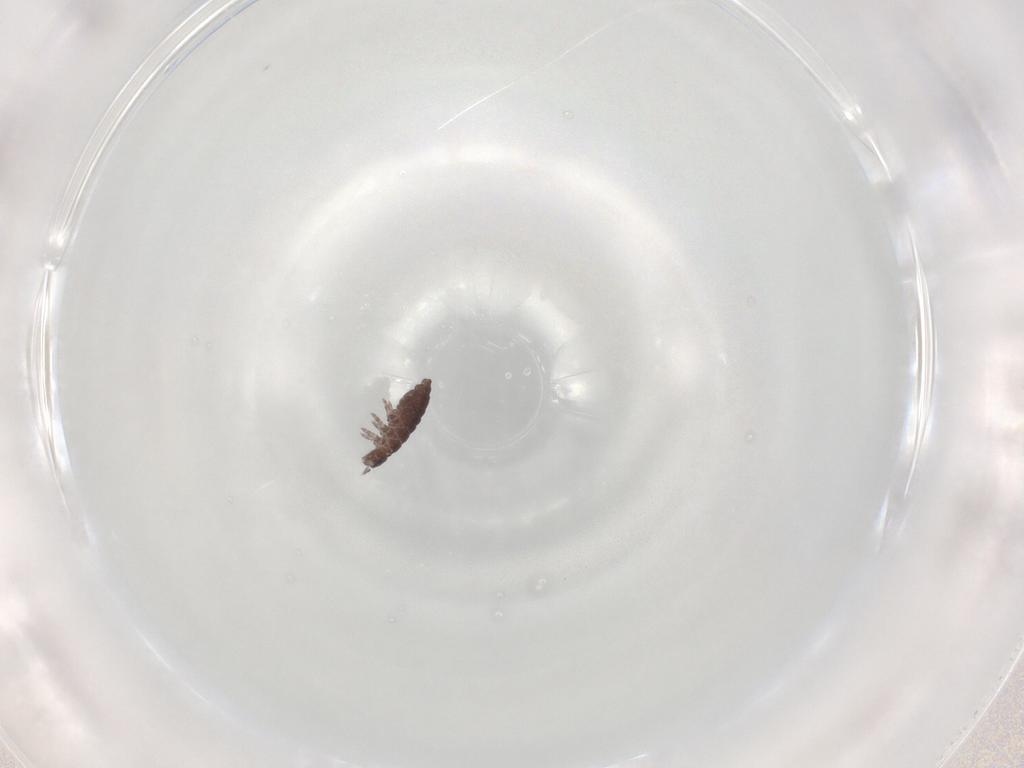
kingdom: Animalia
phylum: Arthropoda
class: Collembola
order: Poduromorpha
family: Hypogastruridae
